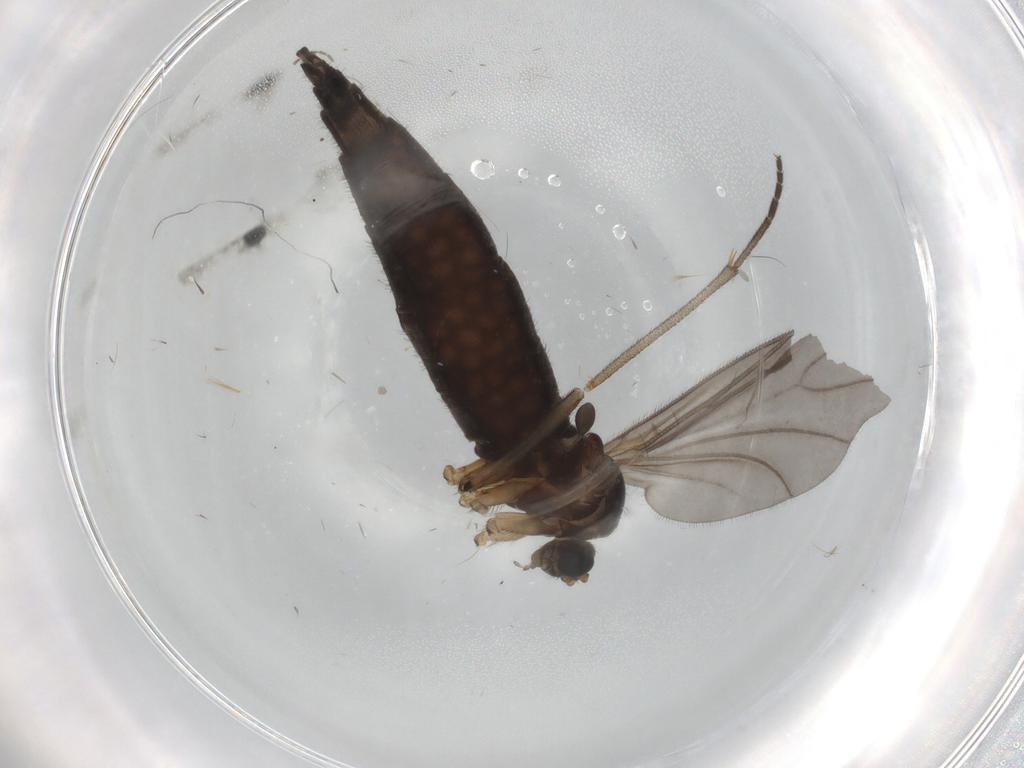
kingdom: Animalia
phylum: Arthropoda
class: Insecta
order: Diptera
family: Sciaridae
